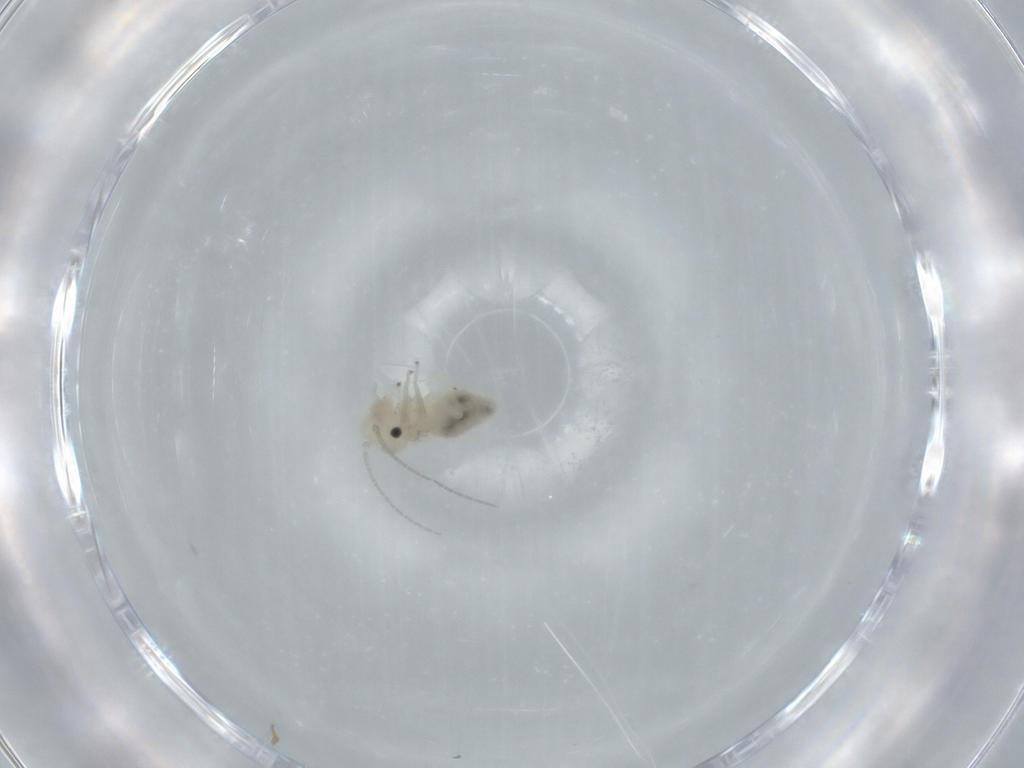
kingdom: Animalia
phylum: Arthropoda
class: Insecta
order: Psocodea
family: Caeciliusidae
